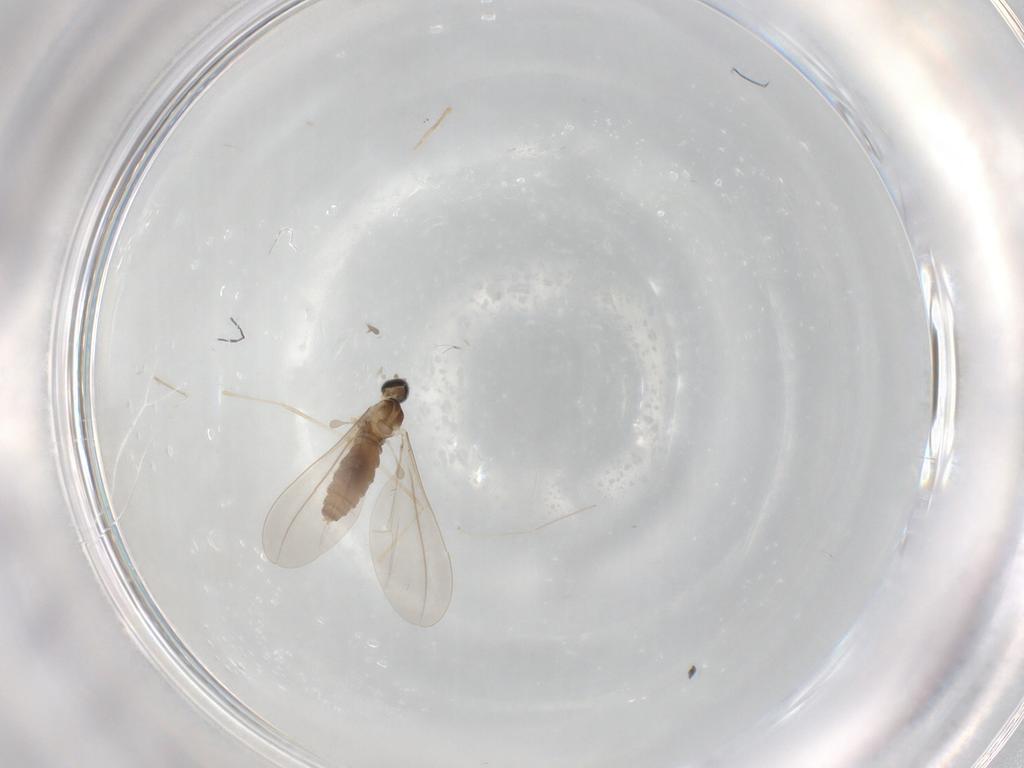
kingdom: Animalia
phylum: Arthropoda
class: Insecta
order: Diptera
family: Cecidomyiidae
